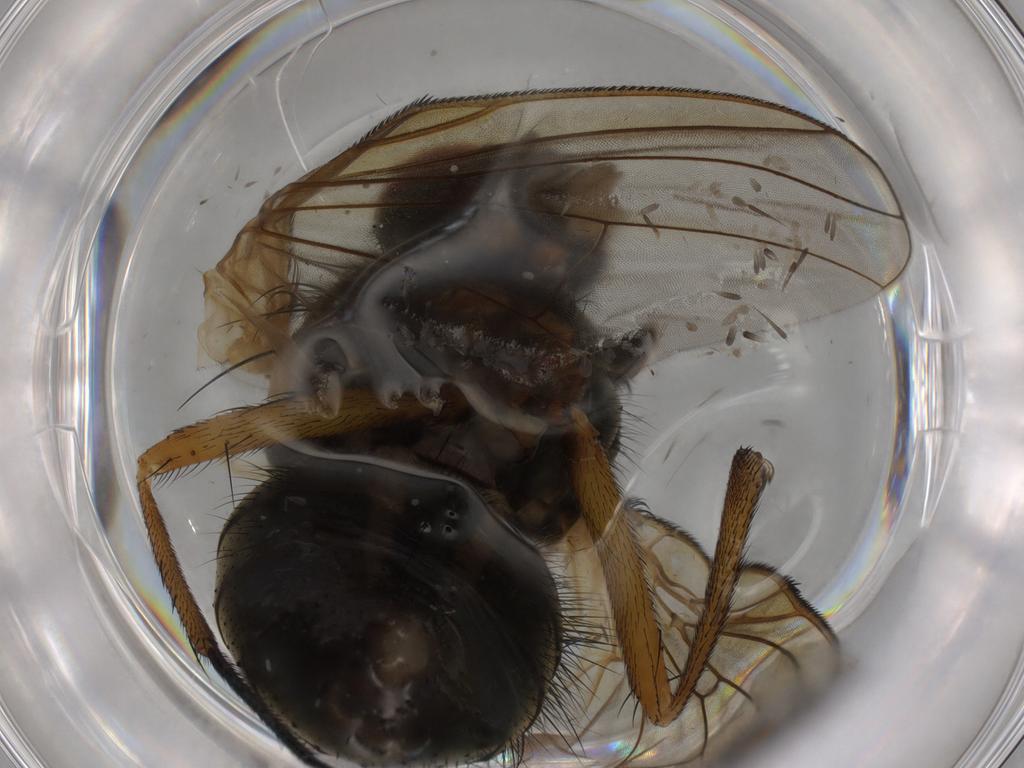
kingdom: Animalia
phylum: Arthropoda
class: Insecta
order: Diptera
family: Muscidae
